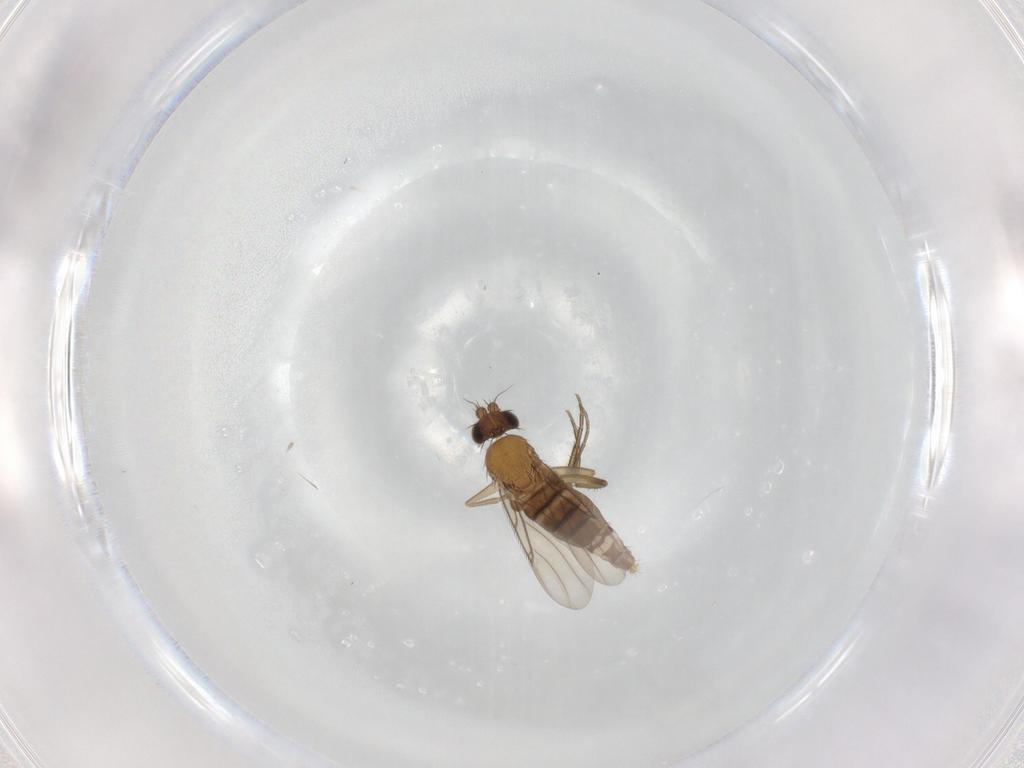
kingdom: Animalia
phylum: Arthropoda
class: Insecta
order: Diptera
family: Phoridae
